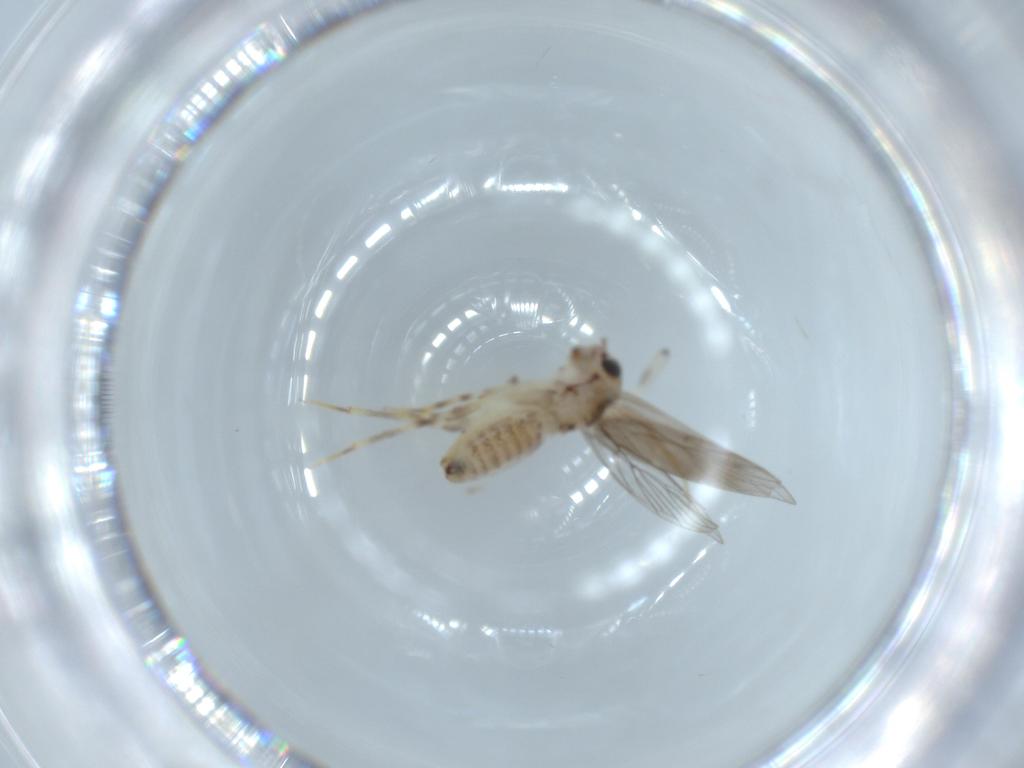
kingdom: Animalia
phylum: Arthropoda
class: Insecta
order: Psocodea
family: Lepidopsocidae
